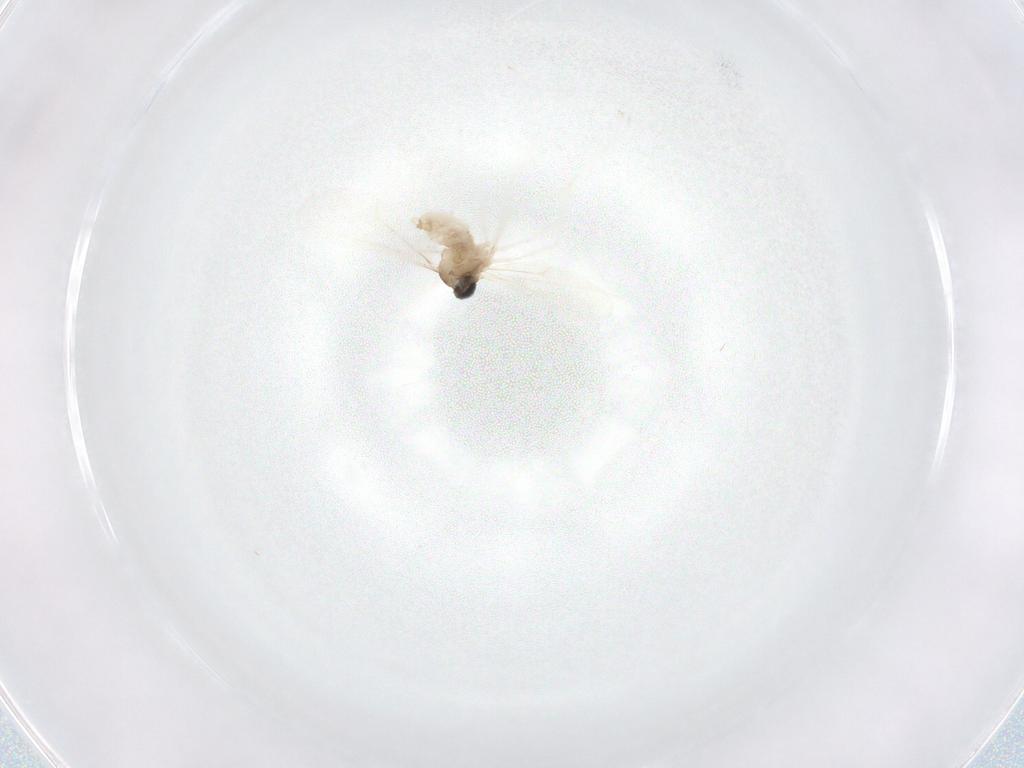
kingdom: Animalia
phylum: Arthropoda
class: Insecta
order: Diptera
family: Cecidomyiidae
